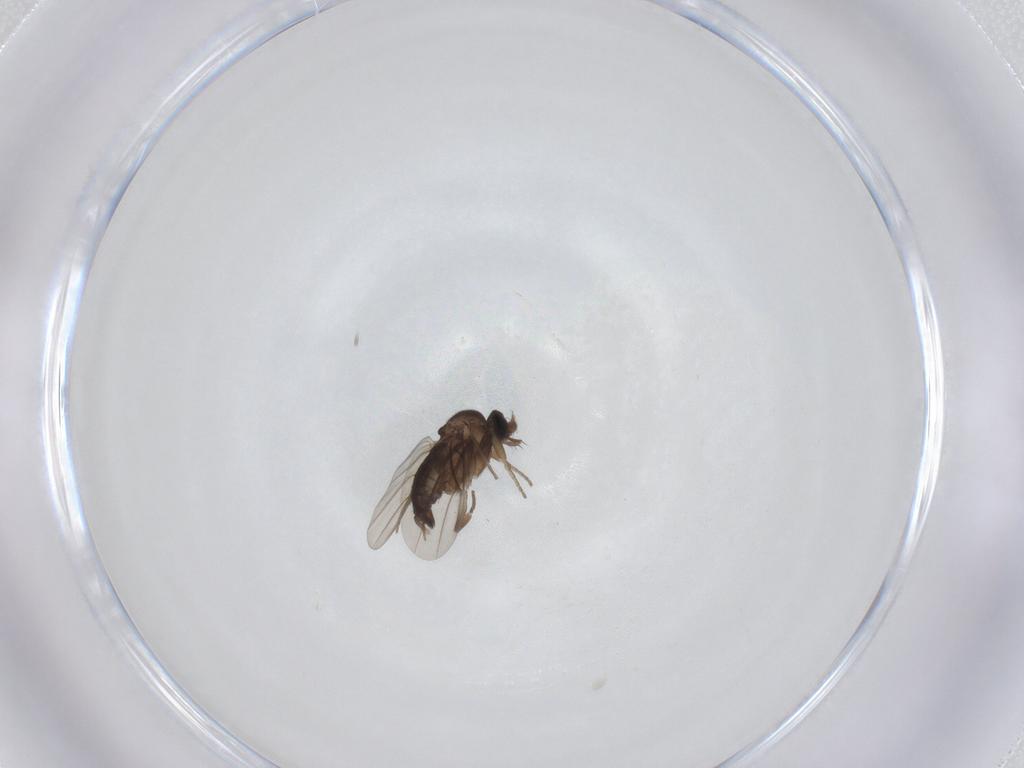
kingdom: Animalia
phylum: Arthropoda
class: Insecta
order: Diptera
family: Phoridae
